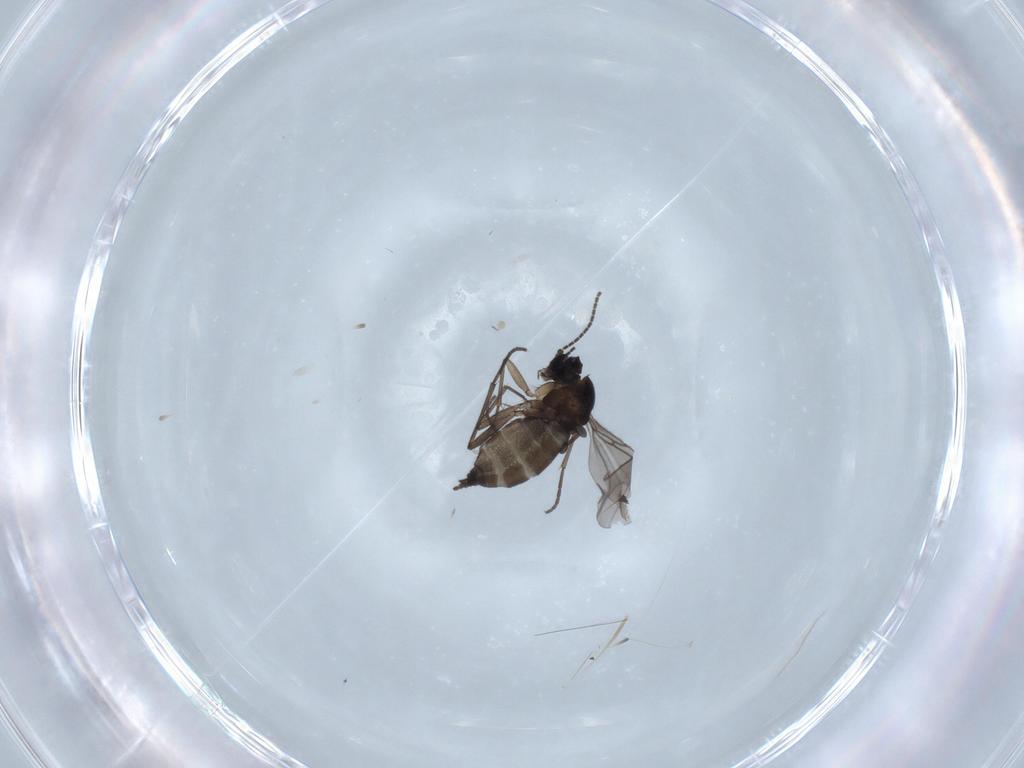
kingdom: Animalia
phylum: Arthropoda
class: Insecta
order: Diptera
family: Sciaridae
